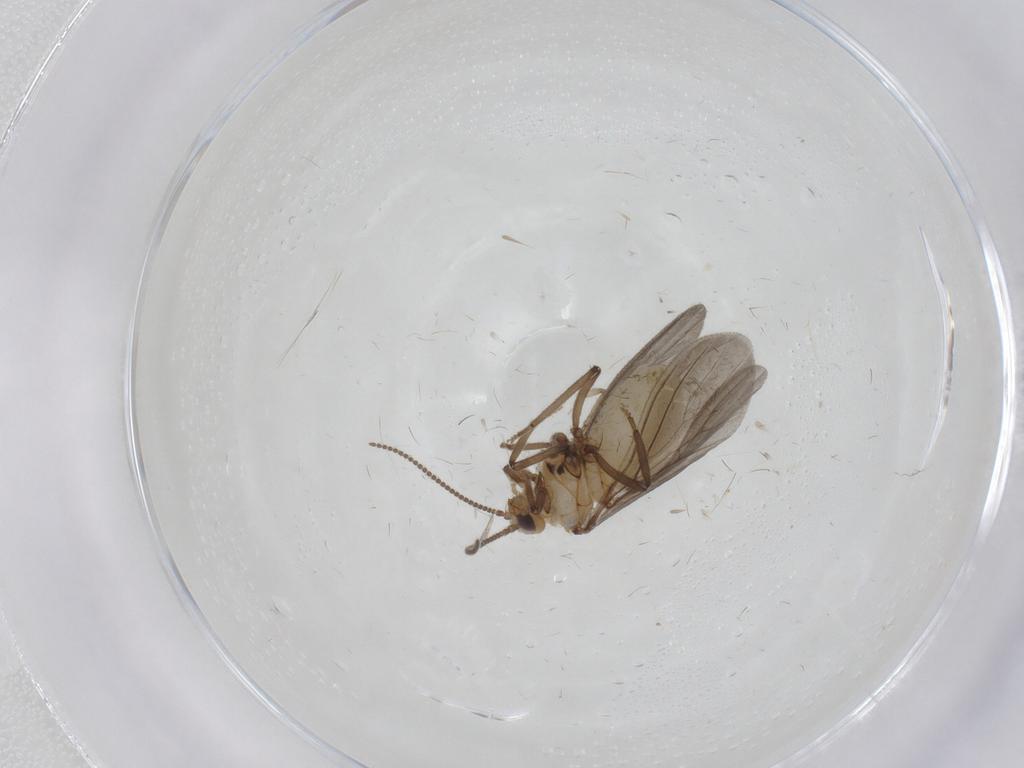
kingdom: Animalia
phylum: Arthropoda
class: Insecta
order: Neuroptera
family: Coniopterygidae
